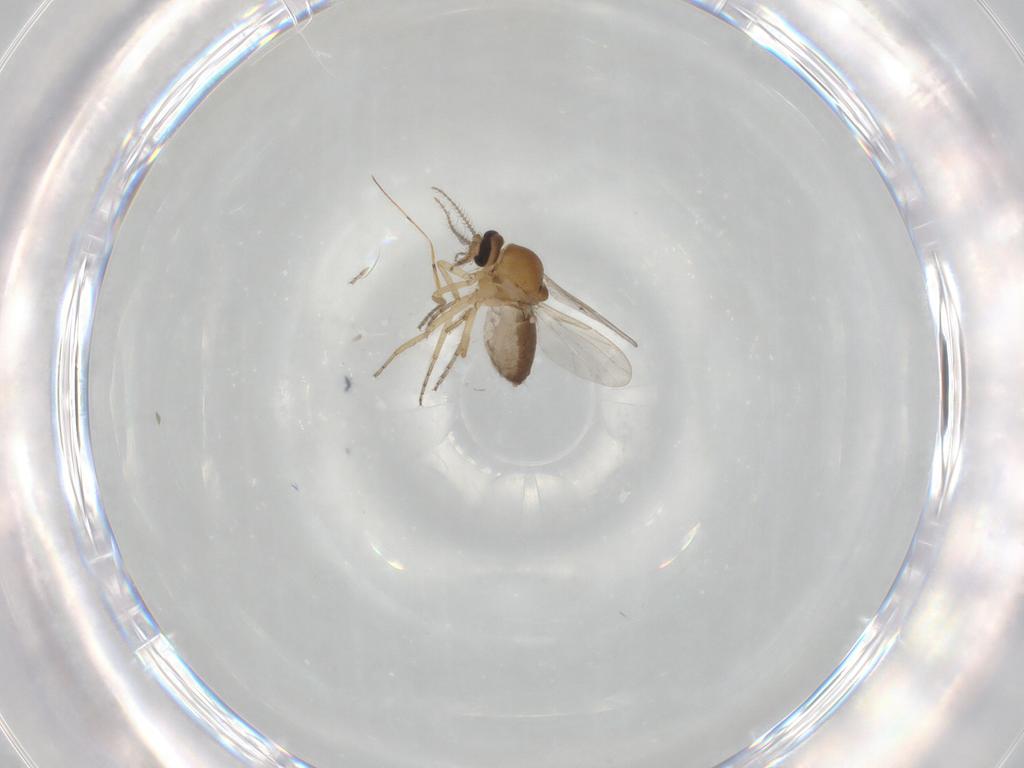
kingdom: Animalia
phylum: Arthropoda
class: Insecta
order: Diptera
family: Ceratopogonidae
